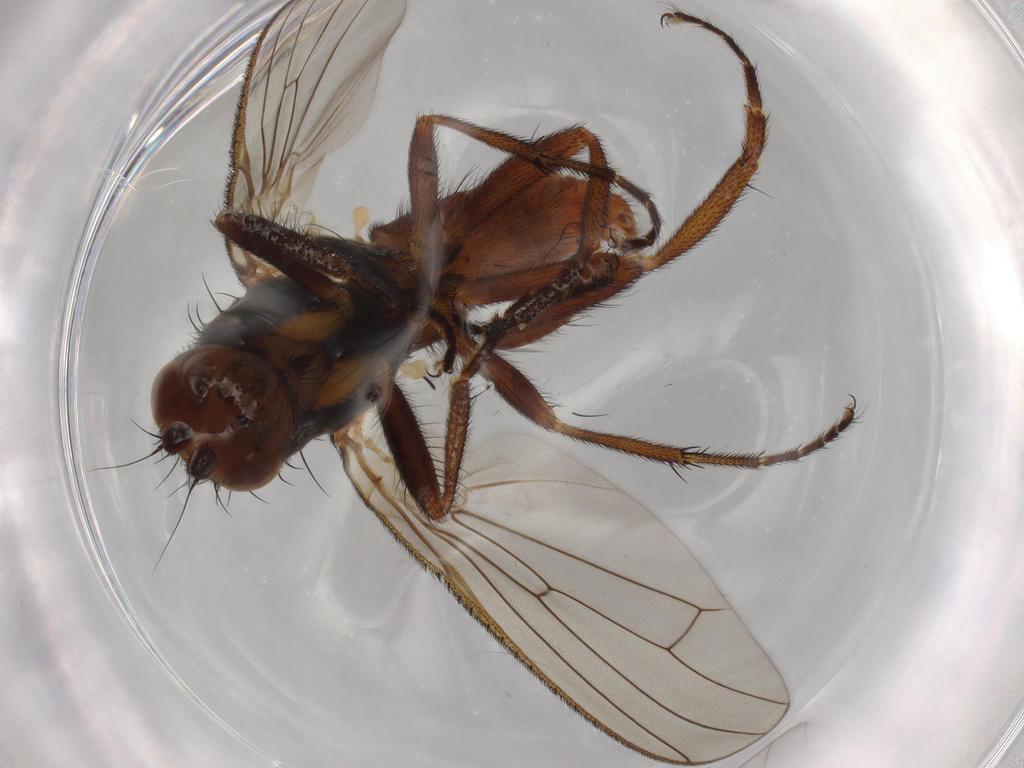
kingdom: Animalia
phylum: Arthropoda
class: Insecta
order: Diptera
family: Heleomyzidae
